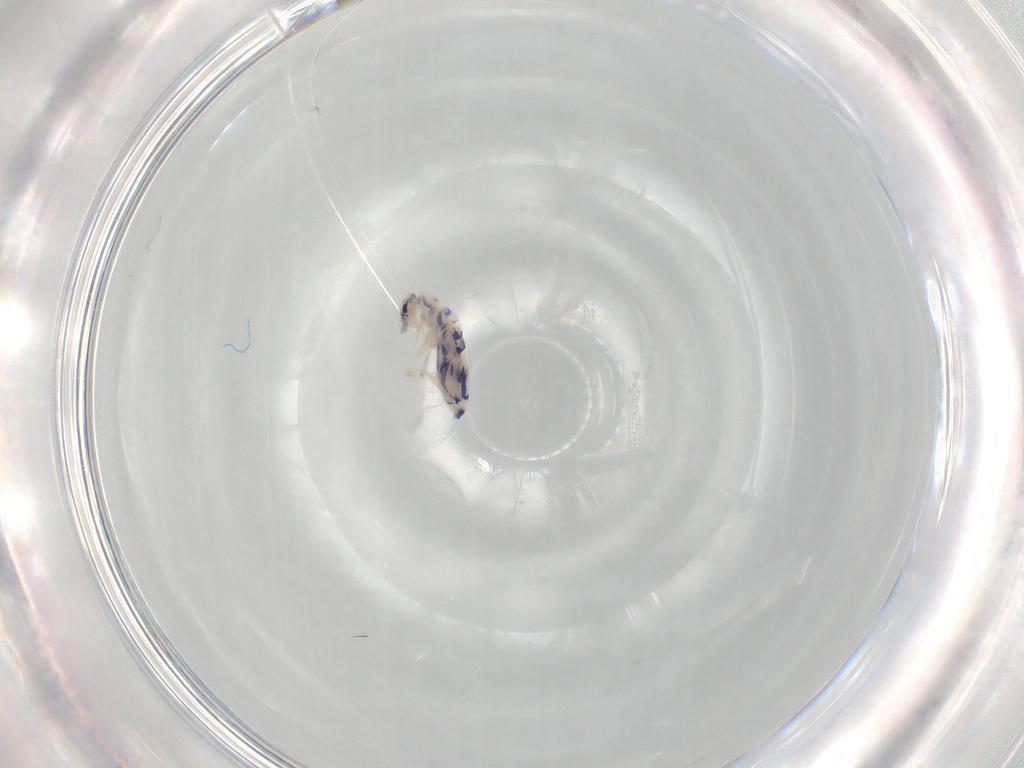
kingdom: Animalia
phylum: Arthropoda
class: Collembola
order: Entomobryomorpha
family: Entomobryidae
